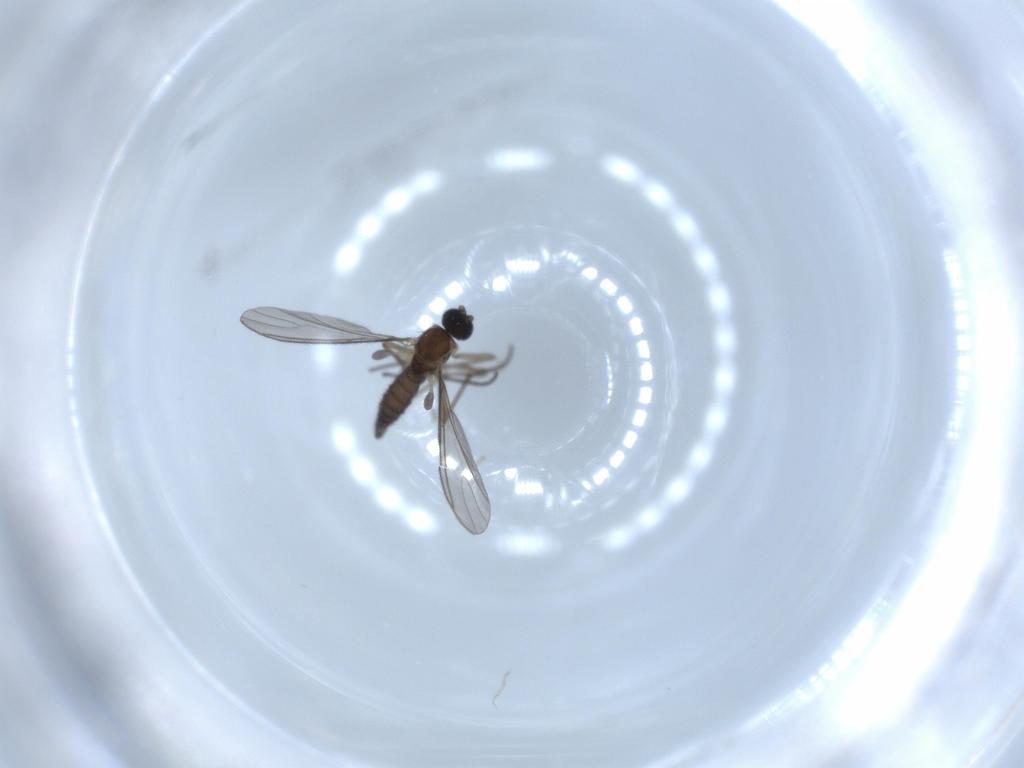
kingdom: Animalia
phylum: Arthropoda
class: Insecta
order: Diptera
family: Sciaridae
